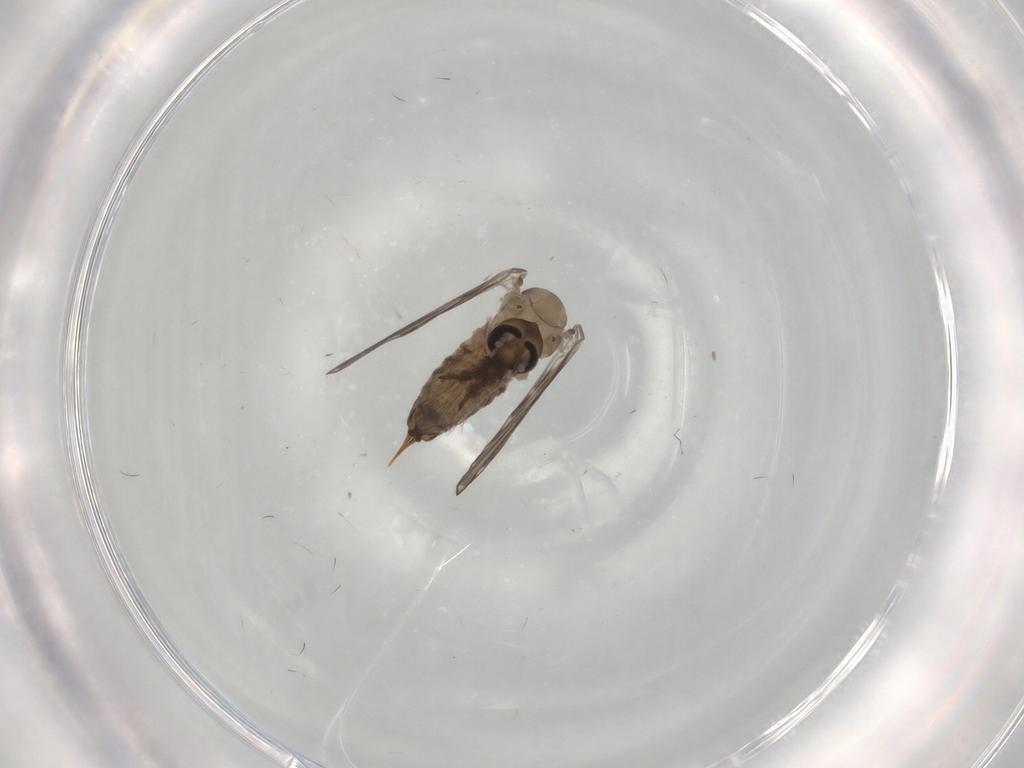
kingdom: Animalia
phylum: Arthropoda
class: Insecta
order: Diptera
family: Psychodidae
